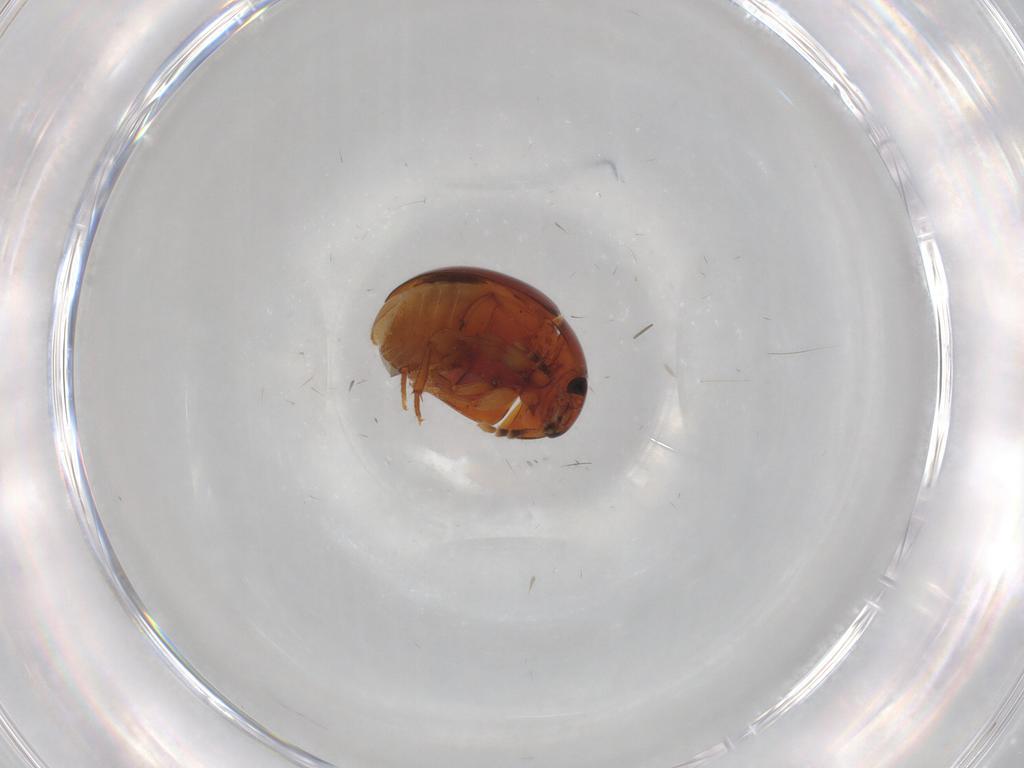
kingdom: Animalia
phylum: Arthropoda
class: Insecta
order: Coleoptera
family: Mordellidae
